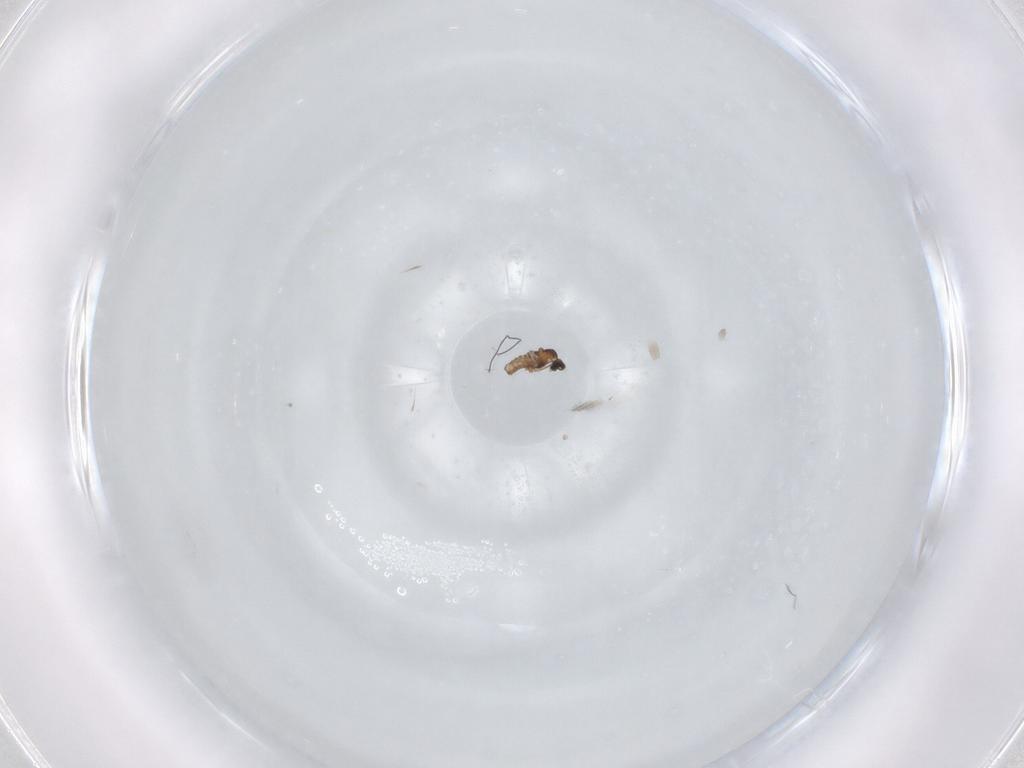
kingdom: Animalia
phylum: Arthropoda
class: Insecta
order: Diptera
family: Cecidomyiidae
